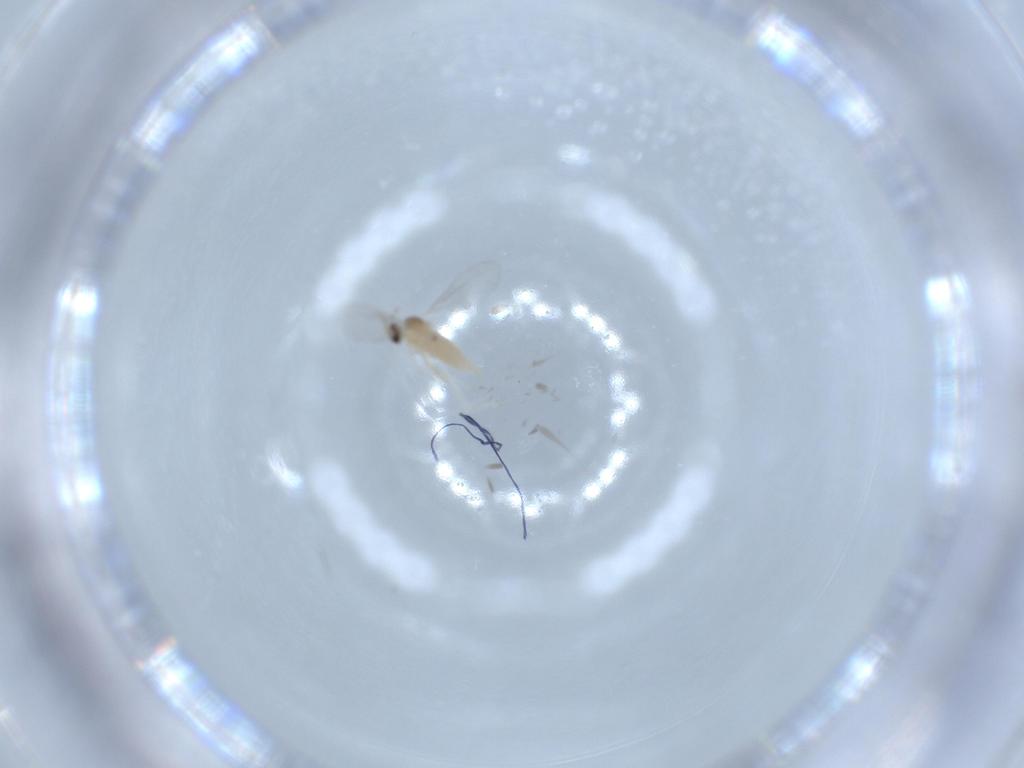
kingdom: Animalia
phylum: Arthropoda
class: Insecta
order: Diptera
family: Cecidomyiidae
